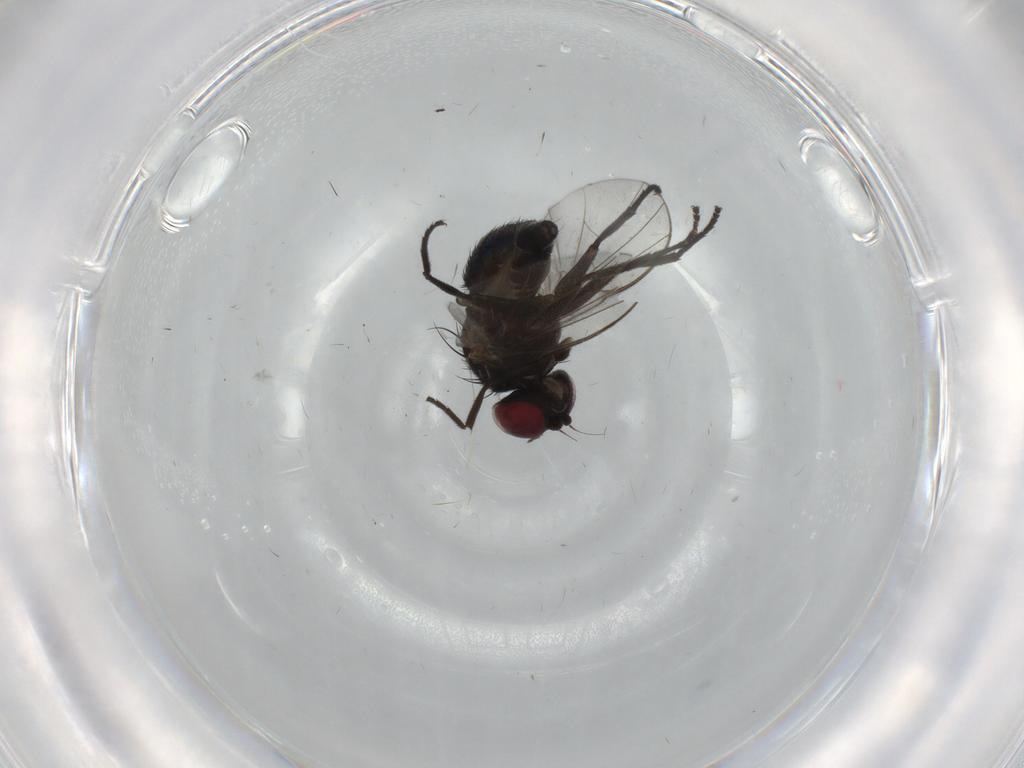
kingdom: Animalia
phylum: Arthropoda
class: Insecta
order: Diptera
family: Agromyzidae
